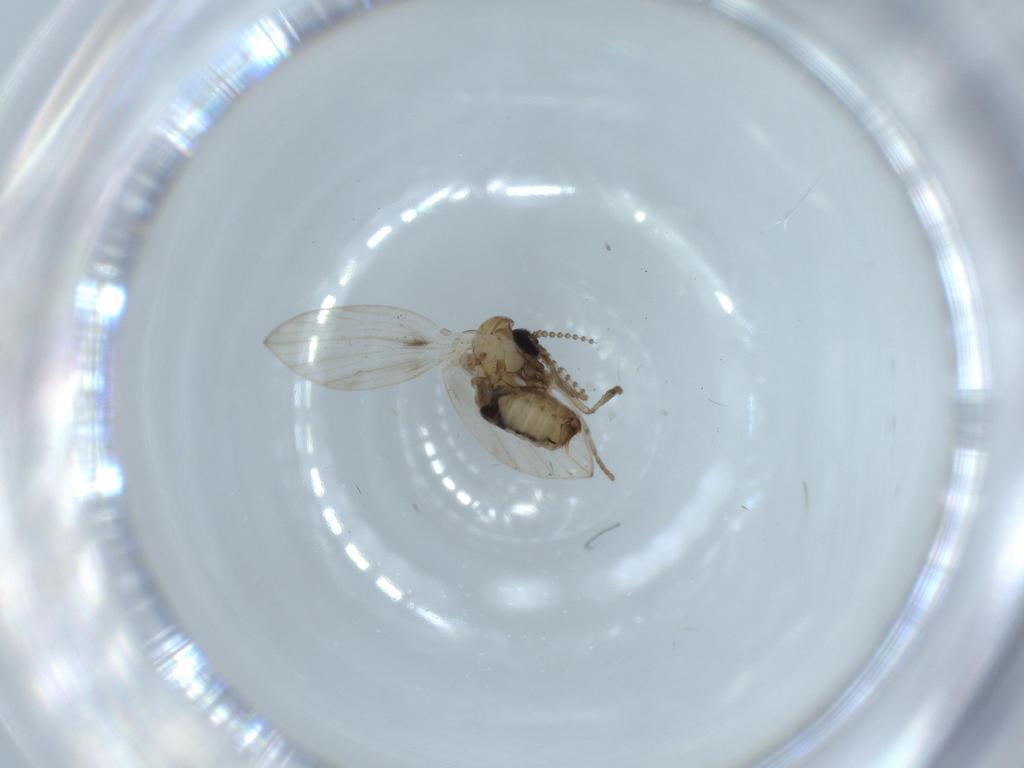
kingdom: Animalia
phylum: Arthropoda
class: Insecta
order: Diptera
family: Psychodidae
